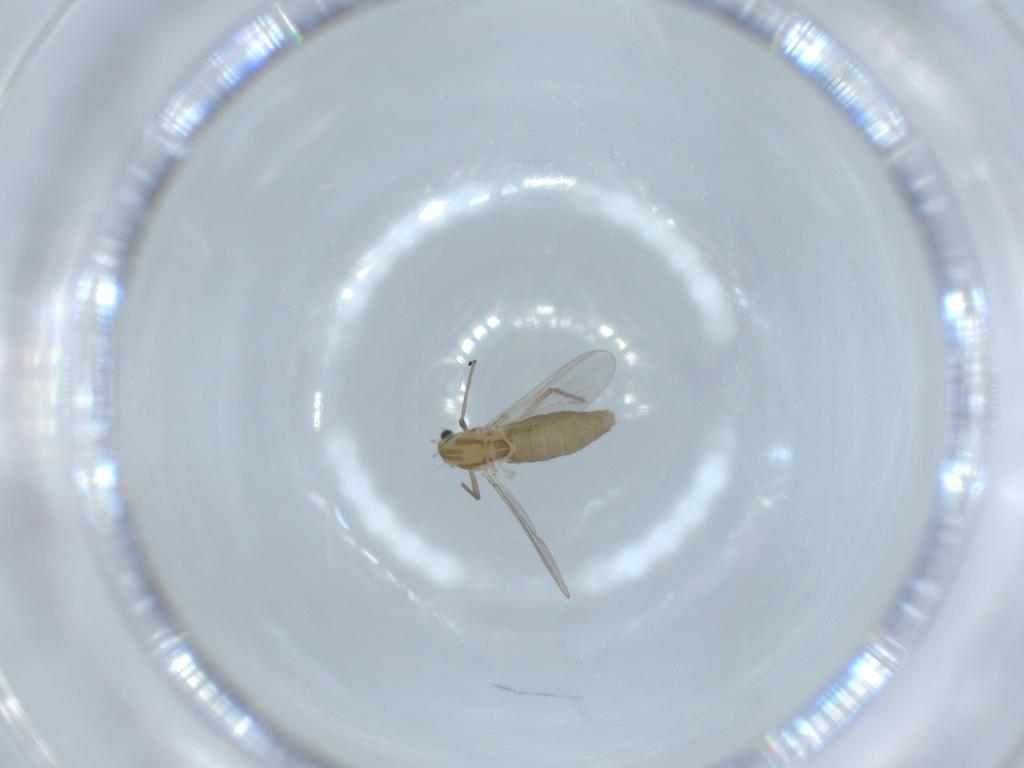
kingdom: Animalia
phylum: Arthropoda
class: Insecta
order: Diptera
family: Chironomidae
